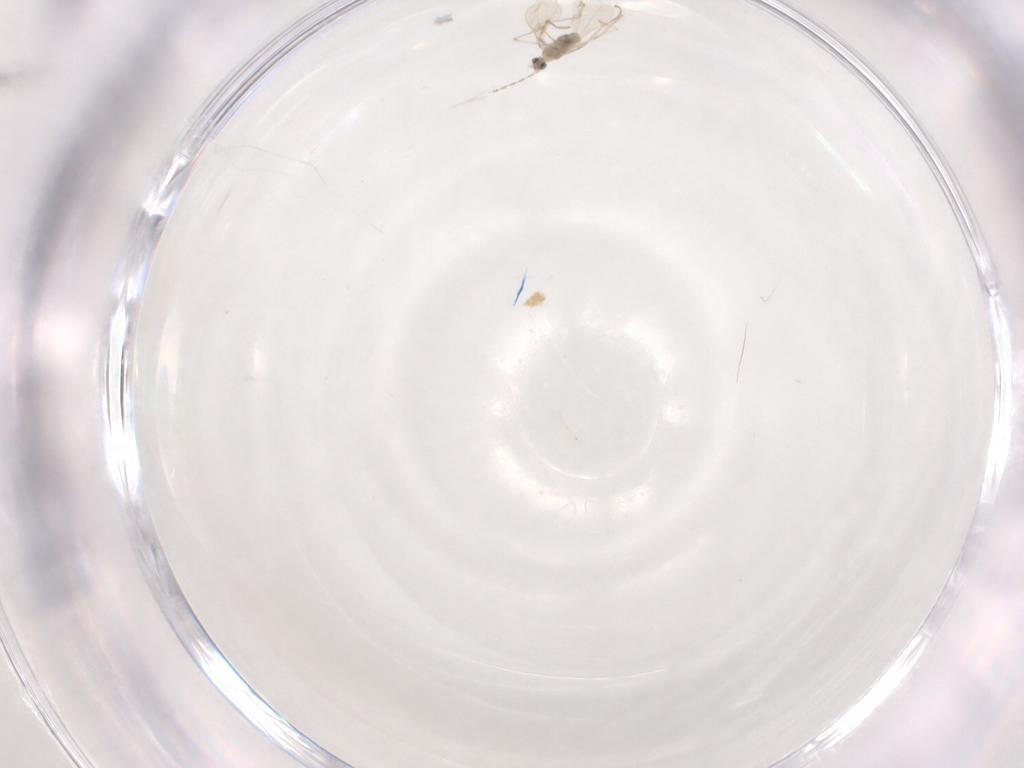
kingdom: Animalia
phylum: Arthropoda
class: Insecta
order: Diptera
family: Cecidomyiidae
